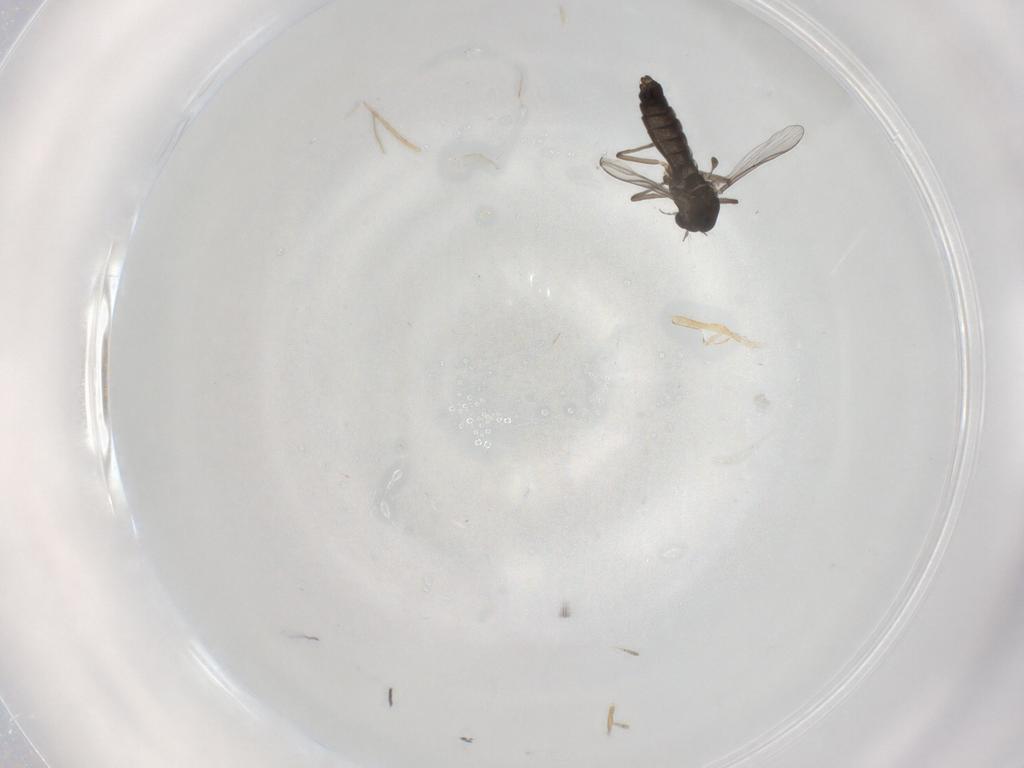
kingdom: Animalia
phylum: Arthropoda
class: Insecta
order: Diptera
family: Chironomidae
